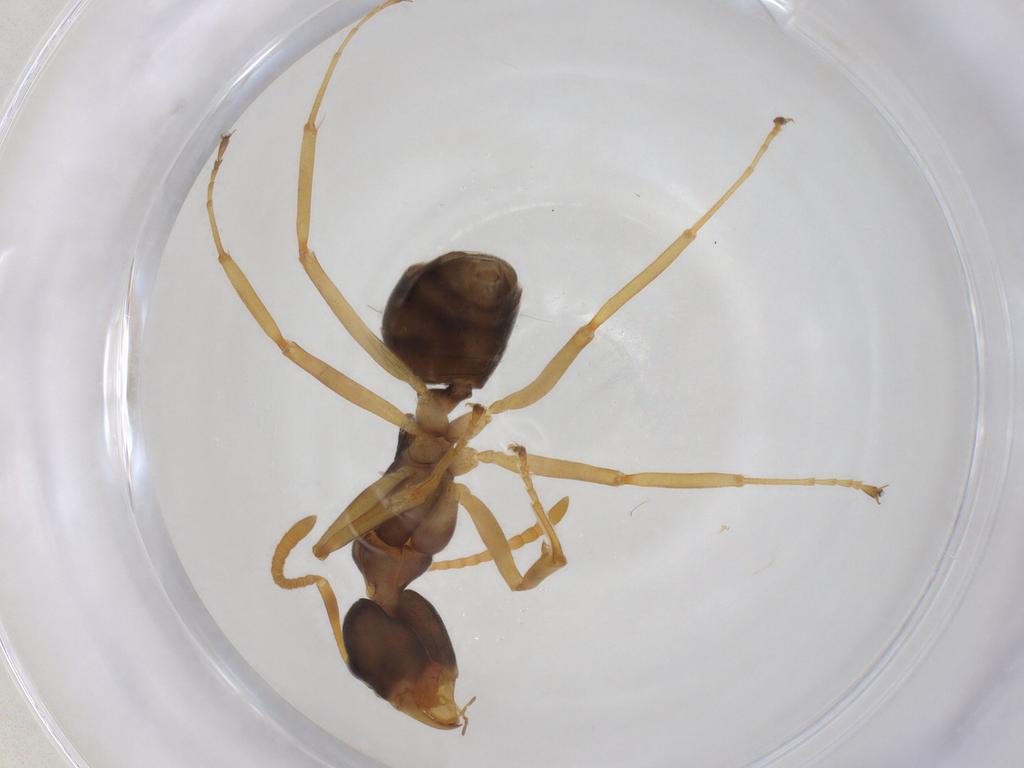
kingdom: Animalia
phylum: Arthropoda
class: Insecta
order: Hymenoptera
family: Formicidae
